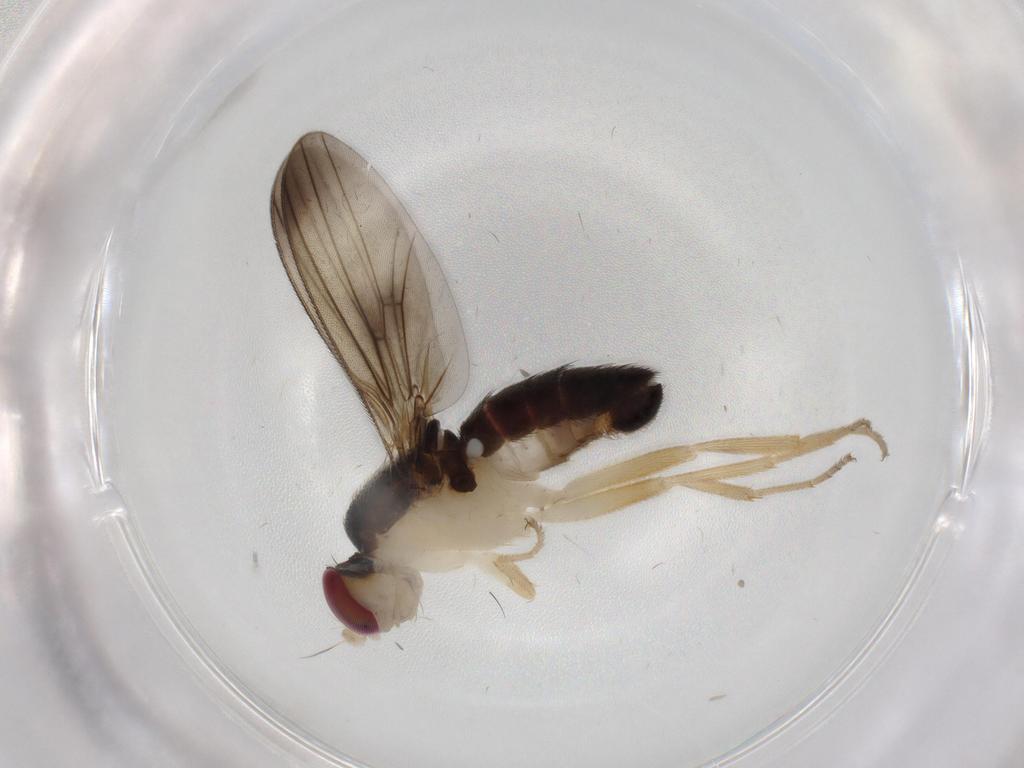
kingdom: Animalia
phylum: Arthropoda
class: Insecta
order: Diptera
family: Clusiidae
